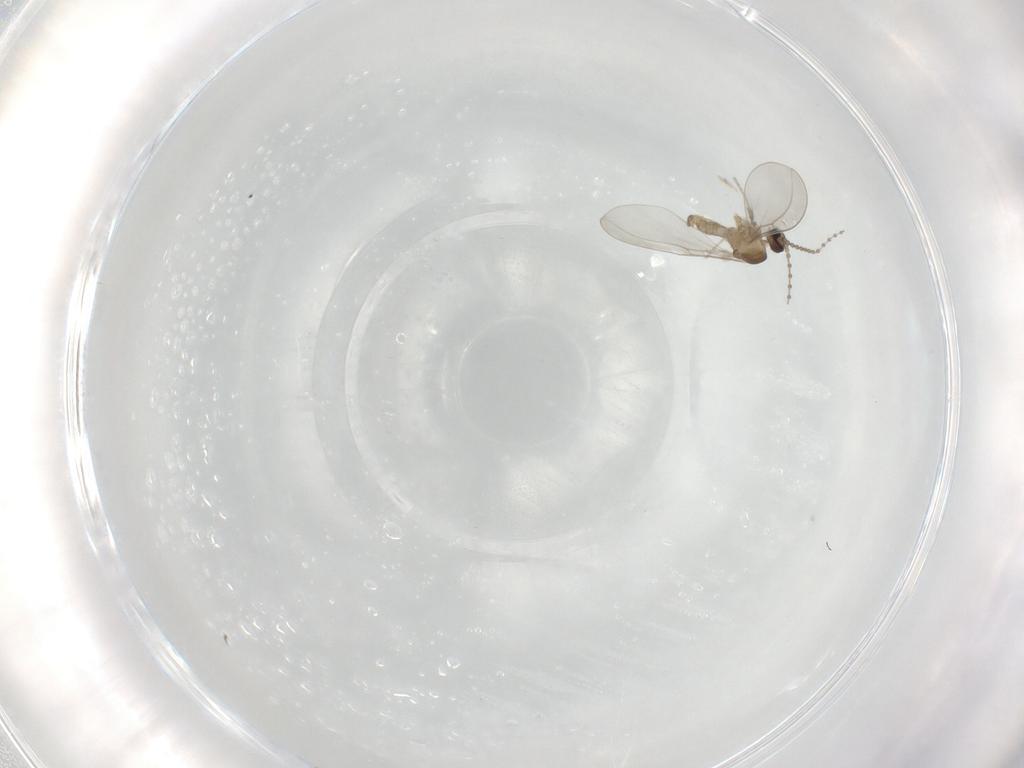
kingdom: Animalia
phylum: Arthropoda
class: Insecta
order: Diptera
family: Cecidomyiidae
